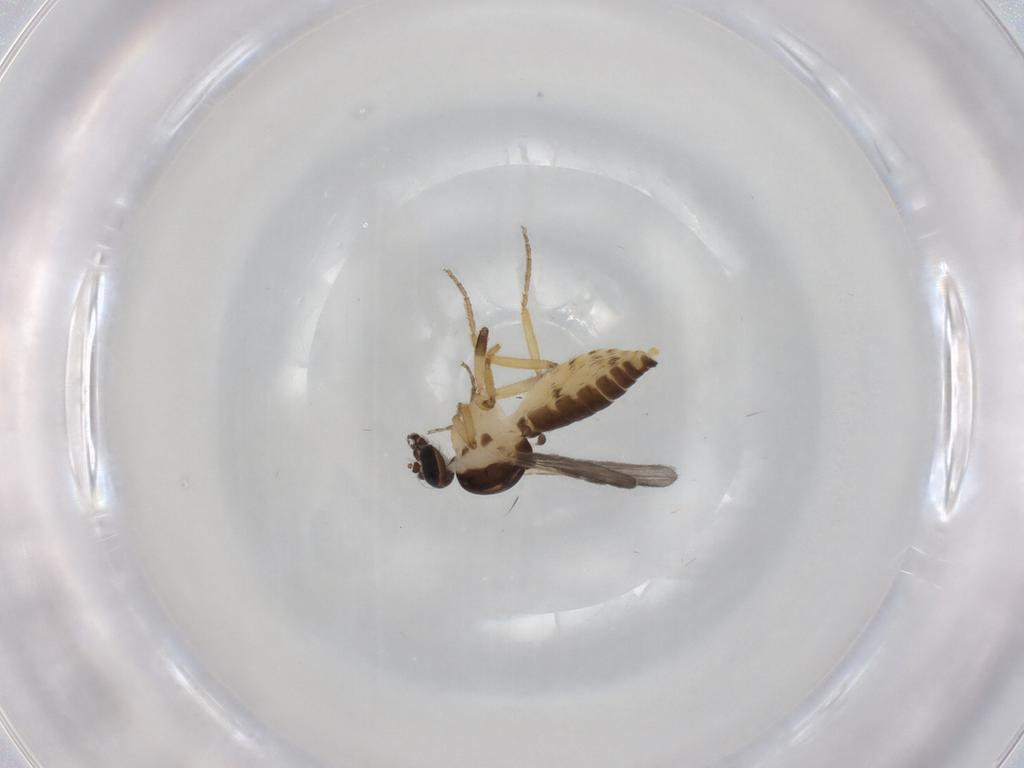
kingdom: Animalia
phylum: Arthropoda
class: Insecta
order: Diptera
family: Ceratopogonidae
